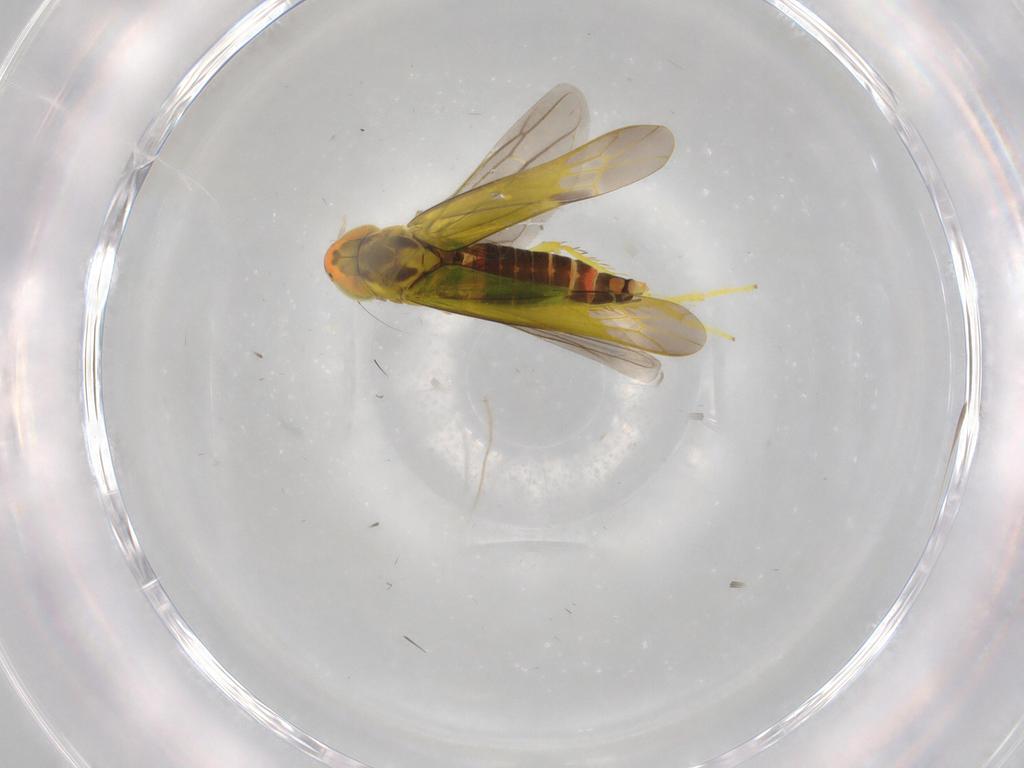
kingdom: Animalia
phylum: Arthropoda
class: Insecta
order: Hemiptera
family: Cicadellidae
